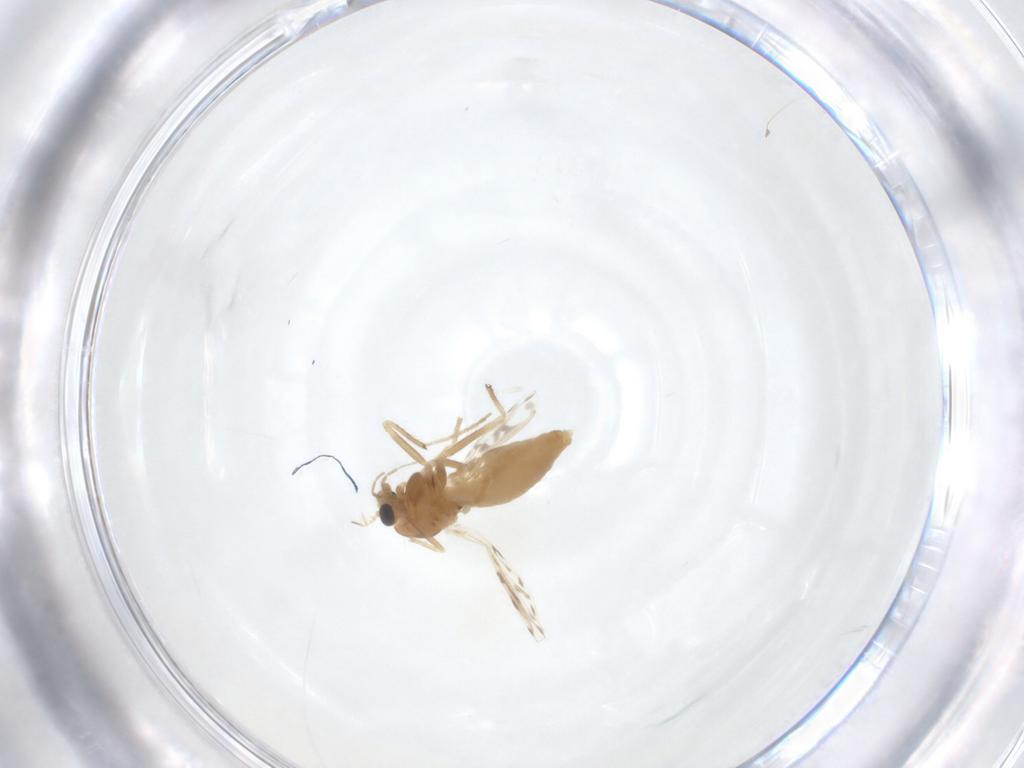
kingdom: Animalia
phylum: Arthropoda
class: Insecta
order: Diptera
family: Chironomidae
